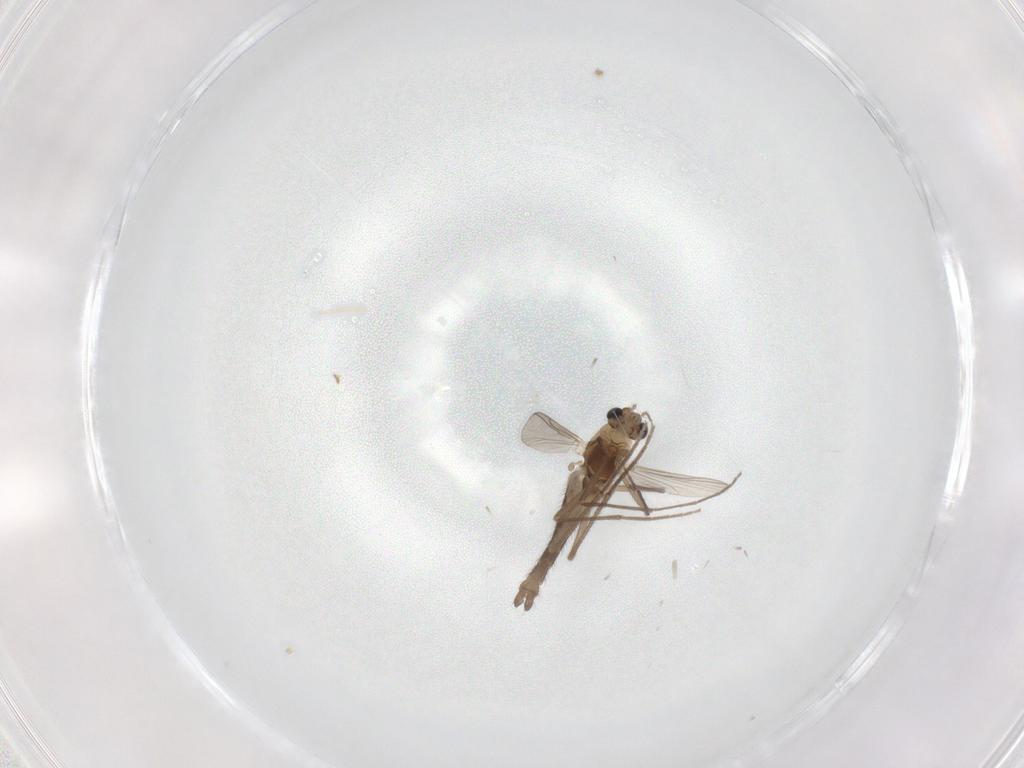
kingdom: Animalia
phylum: Arthropoda
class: Insecta
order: Diptera
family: Chironomidae
